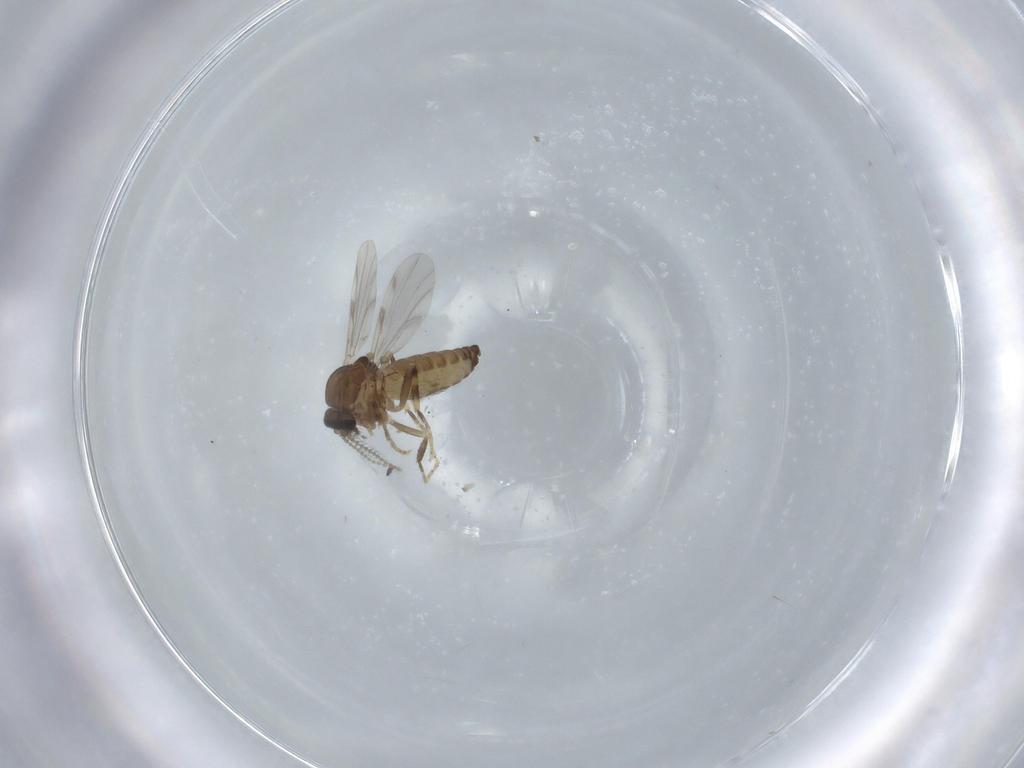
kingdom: Animalia
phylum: Arthropoda
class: Insecta
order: Diptera
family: Ceratopogonidae
